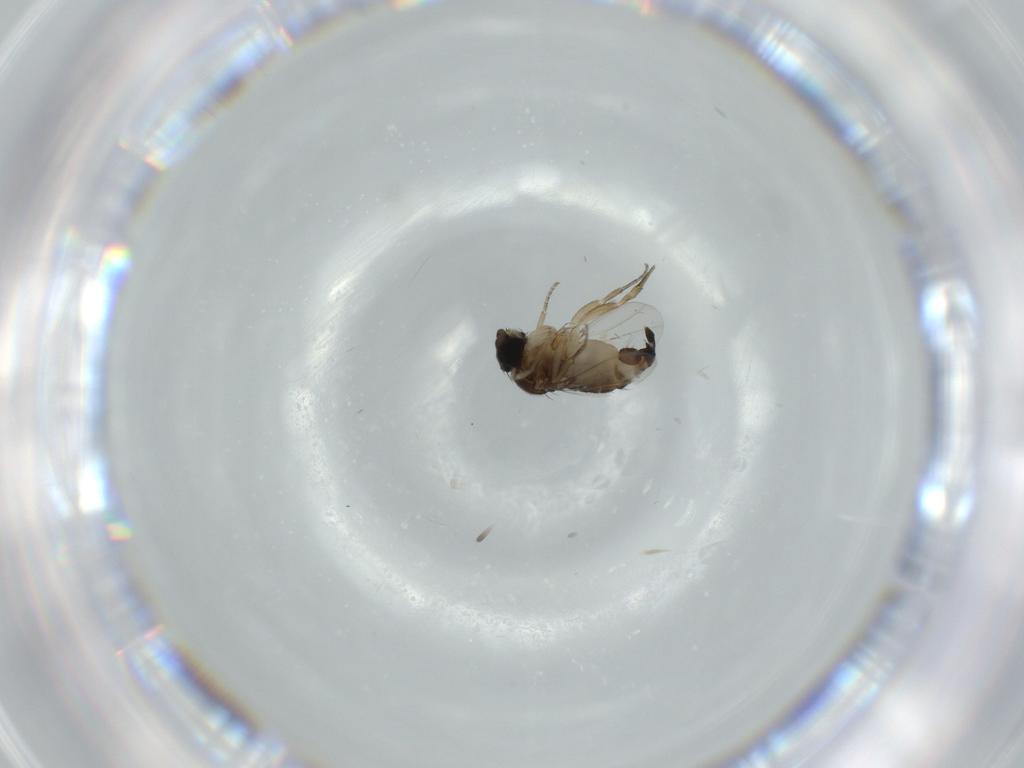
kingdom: Animalia
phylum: Arthropoda
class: Insecta
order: Diptera
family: Phoridae
